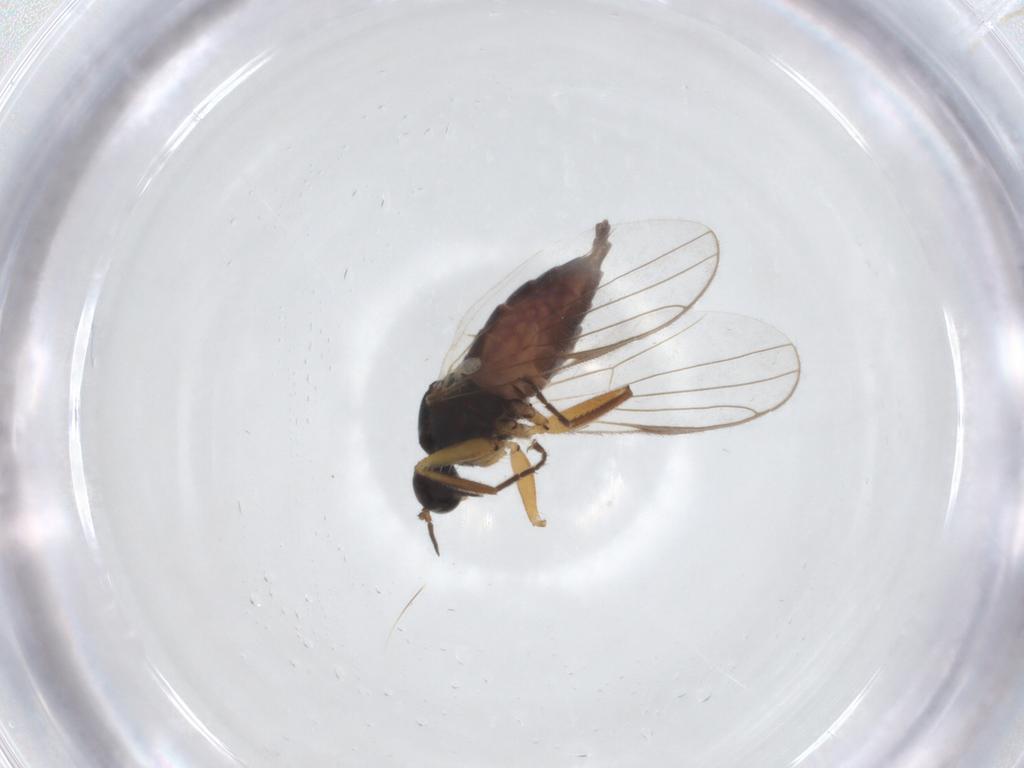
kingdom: Animalia
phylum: Arthropoda
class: Insecta
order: Diptera
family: Hybotidae
